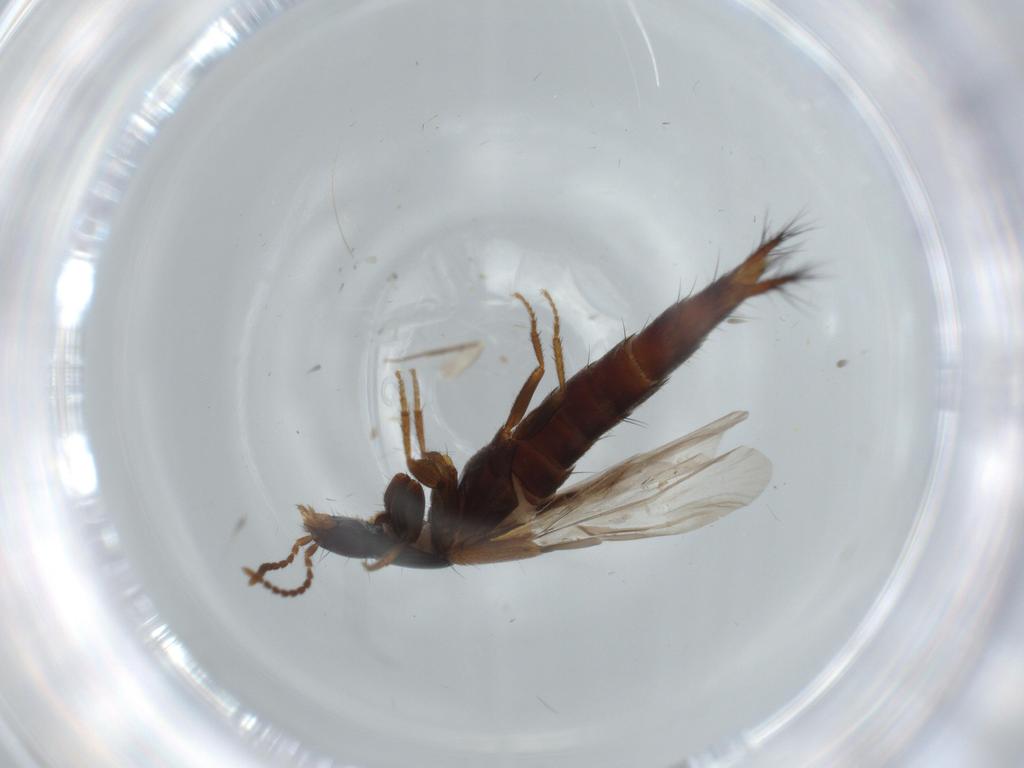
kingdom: Animalia
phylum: Arthropoda
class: Insecta
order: Coleoptera
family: Staphylinidae
